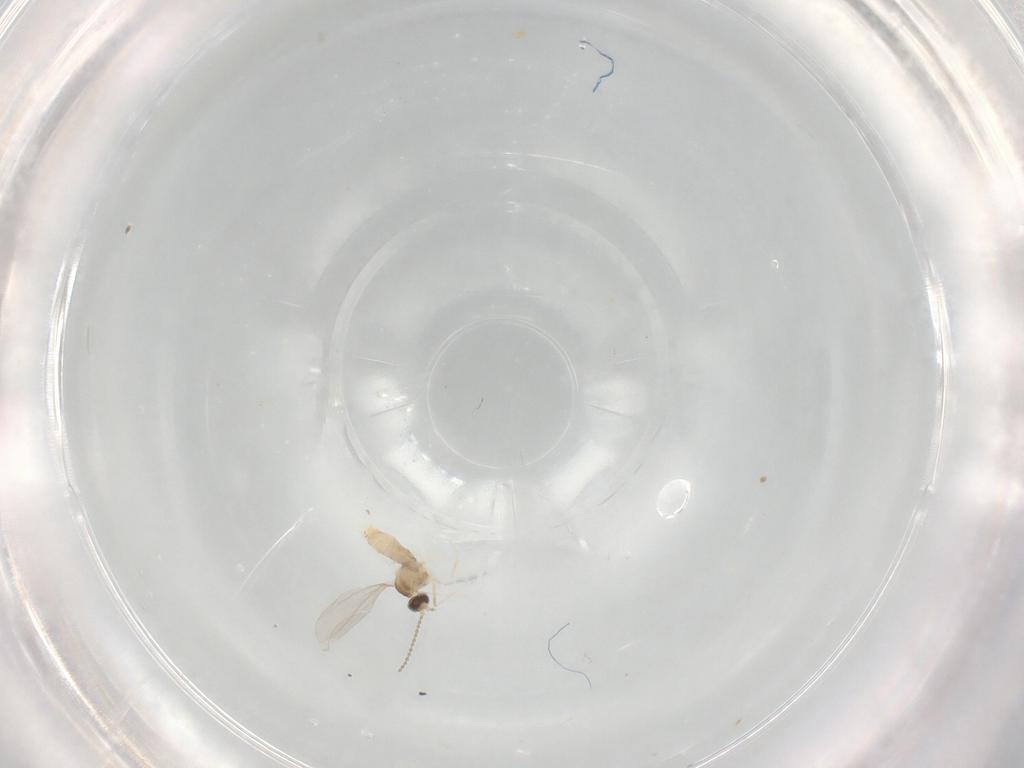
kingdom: Animalia
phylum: Arthropoda
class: Insecta
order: Diptera
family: Cecidomyiidae
